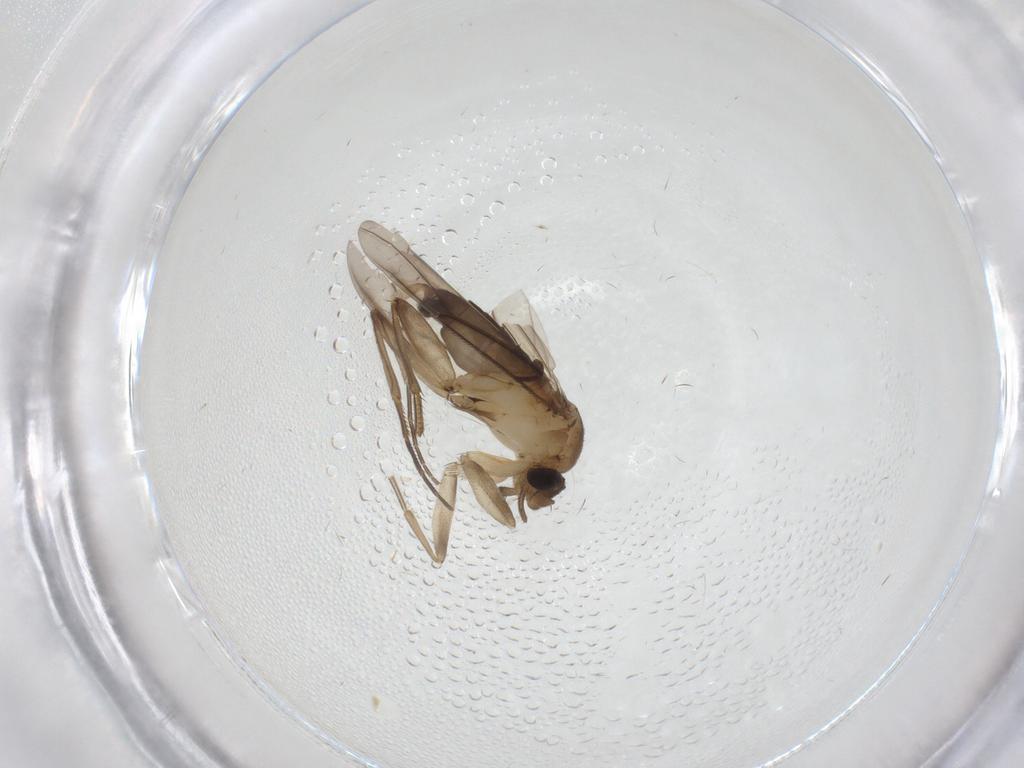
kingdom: Animalia
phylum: Arthropoda
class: Insecta
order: Diptera
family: Phoridae
